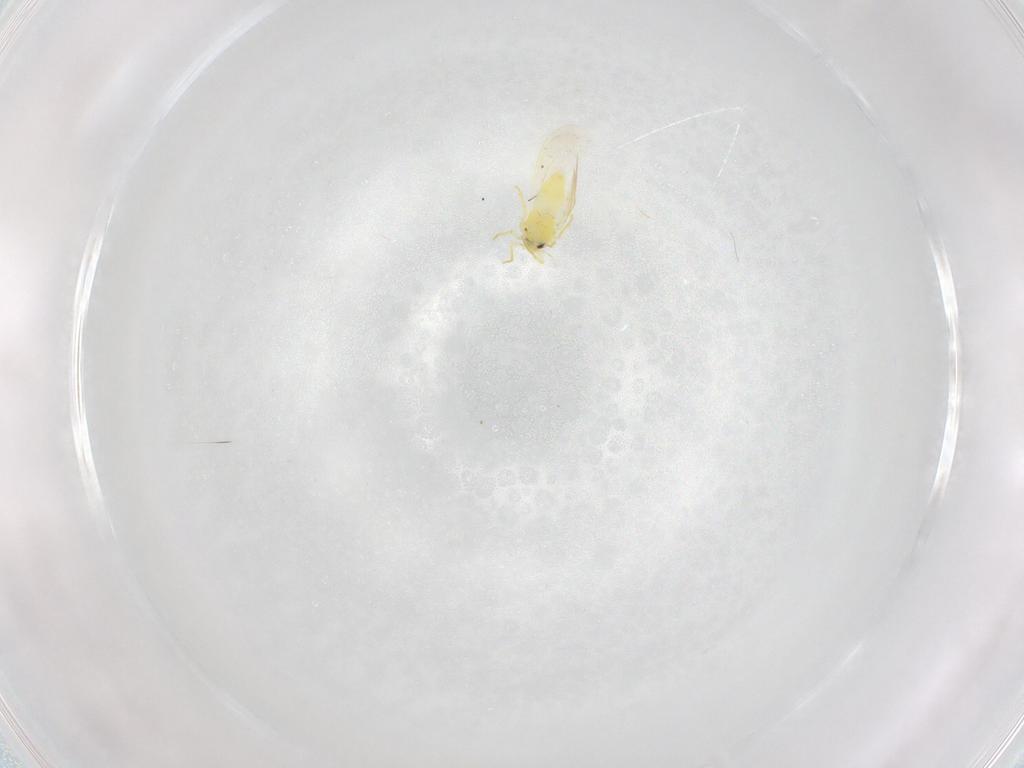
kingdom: Animalia
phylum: Arthropoda
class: Insecta
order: Hemiptera
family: Aleyrodidae
